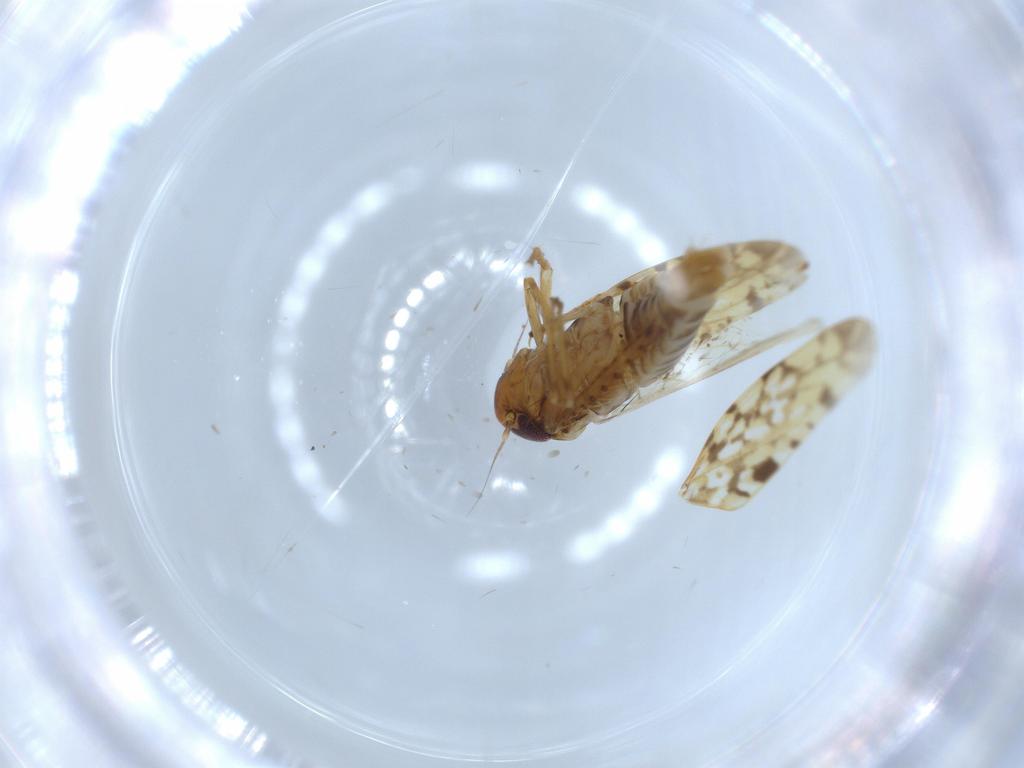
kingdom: Animalia
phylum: Arthropoda
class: Insecta
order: Hemiptera
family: Cicadellidae
